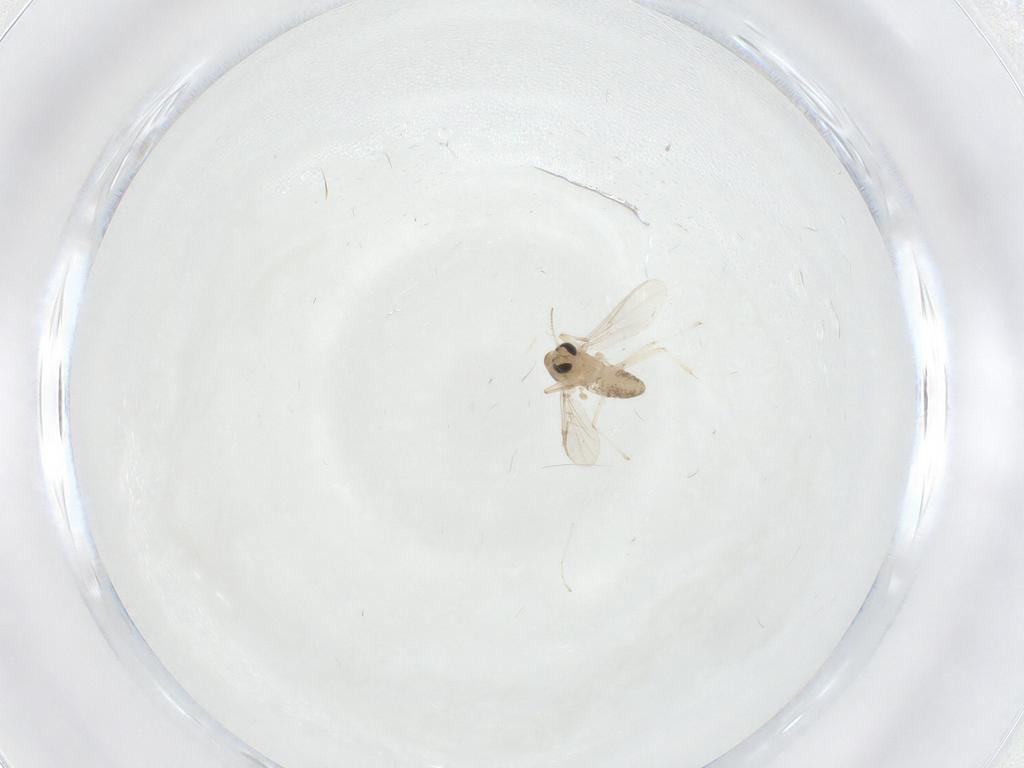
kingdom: Animalia
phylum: Arthropoda
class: Insecta
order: Diptera
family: Chironomidae
